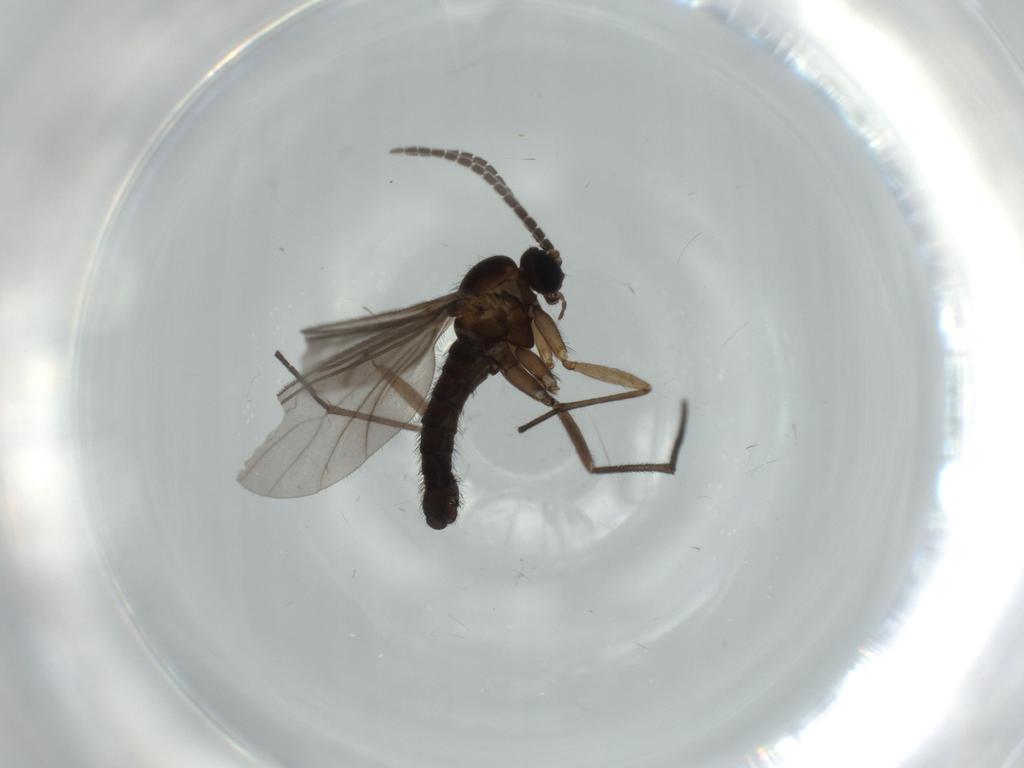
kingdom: Animalia
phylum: Arthropoda
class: Insecta
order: Diptera
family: Sciaridae
